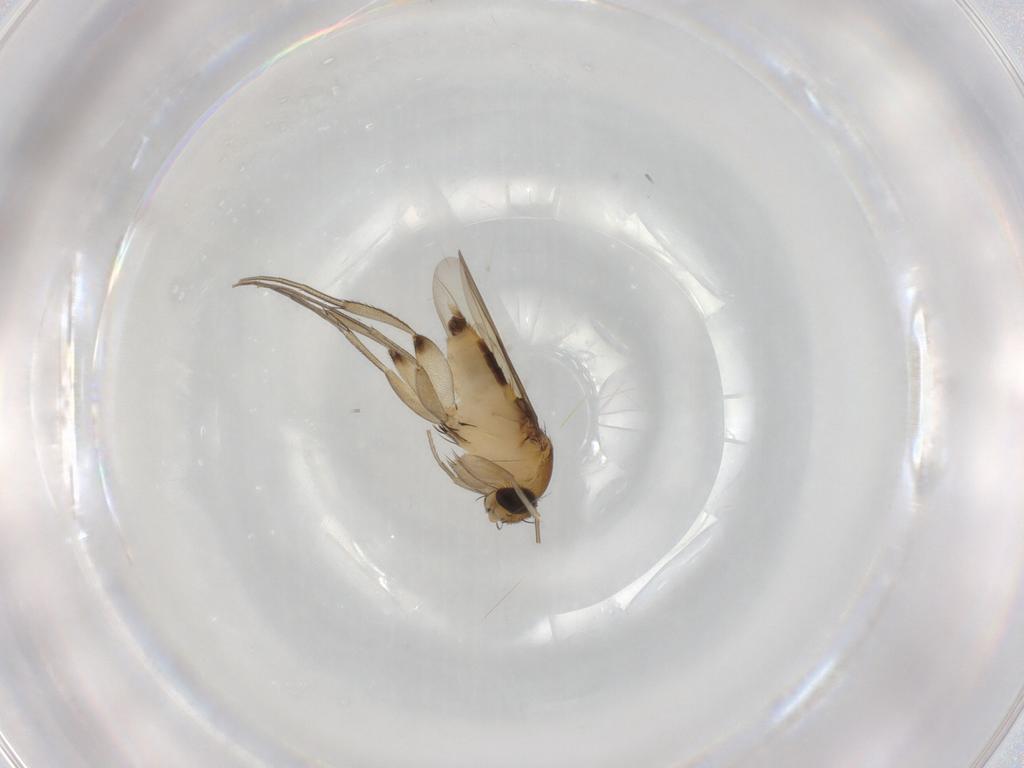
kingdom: Animalia
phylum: Arthropoda
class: Insecta
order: Diptera
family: Phoridae
